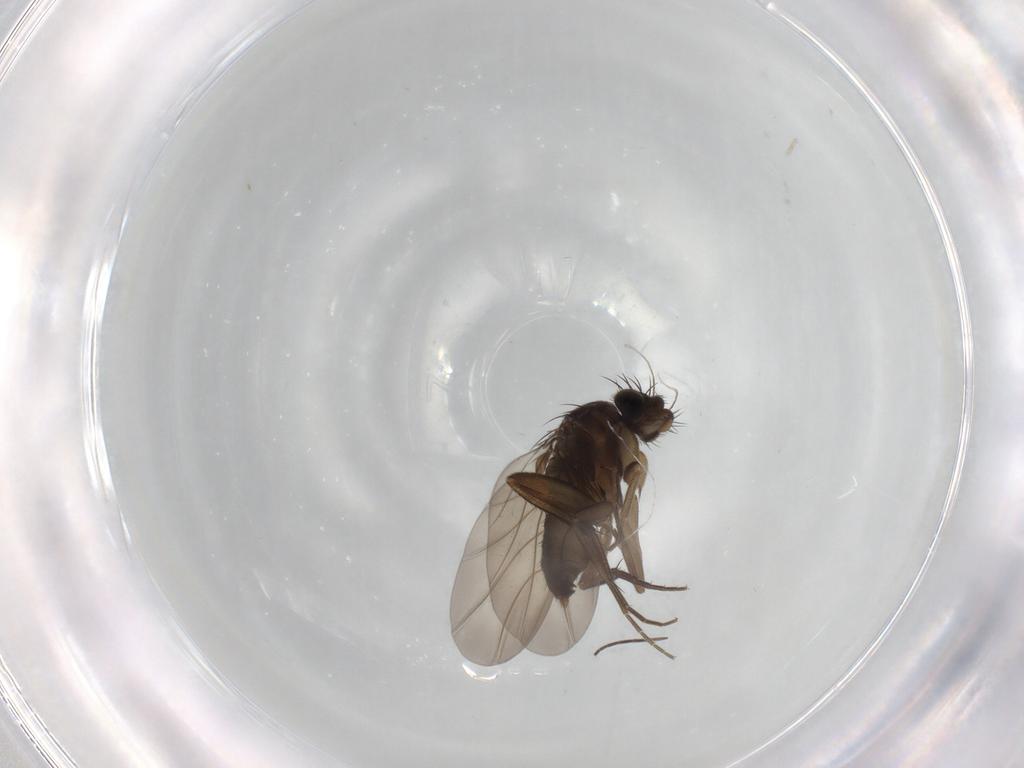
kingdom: Animalia
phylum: Arthropoda
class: Insecta
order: Diptera
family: Phoridae
